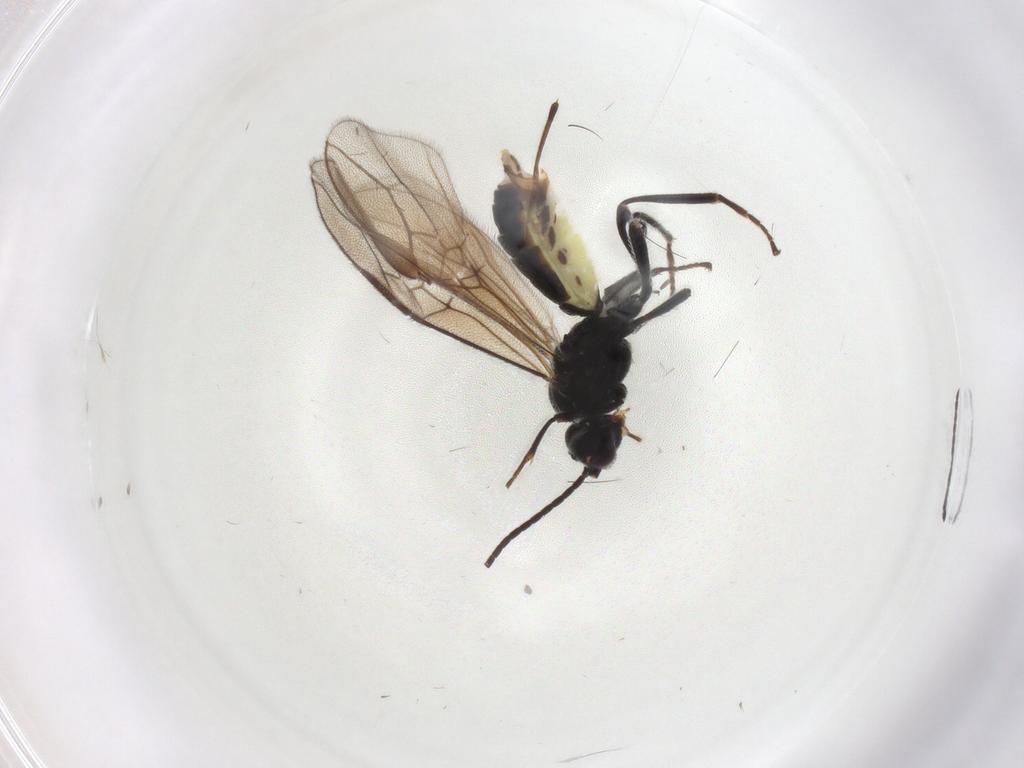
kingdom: Animalia
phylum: Arthropoda
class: Insecta
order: Hymenoptera
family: Braconidae
